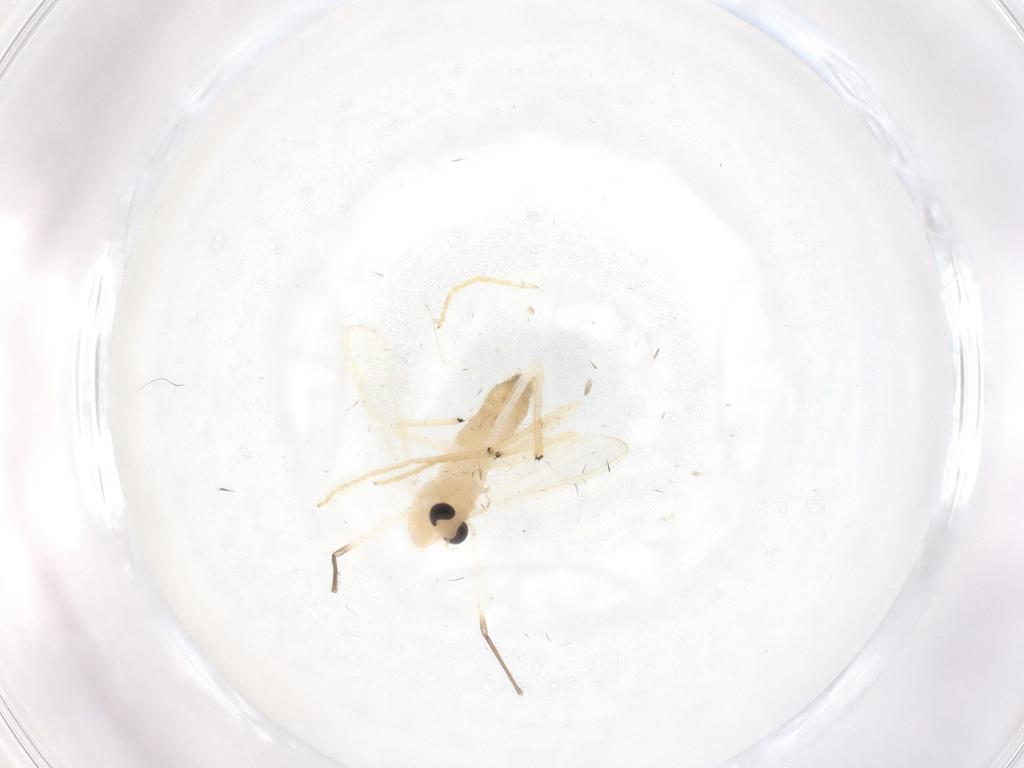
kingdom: Animalia
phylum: Arthropoda
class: Insecta
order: Diptera
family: Chironomidae
